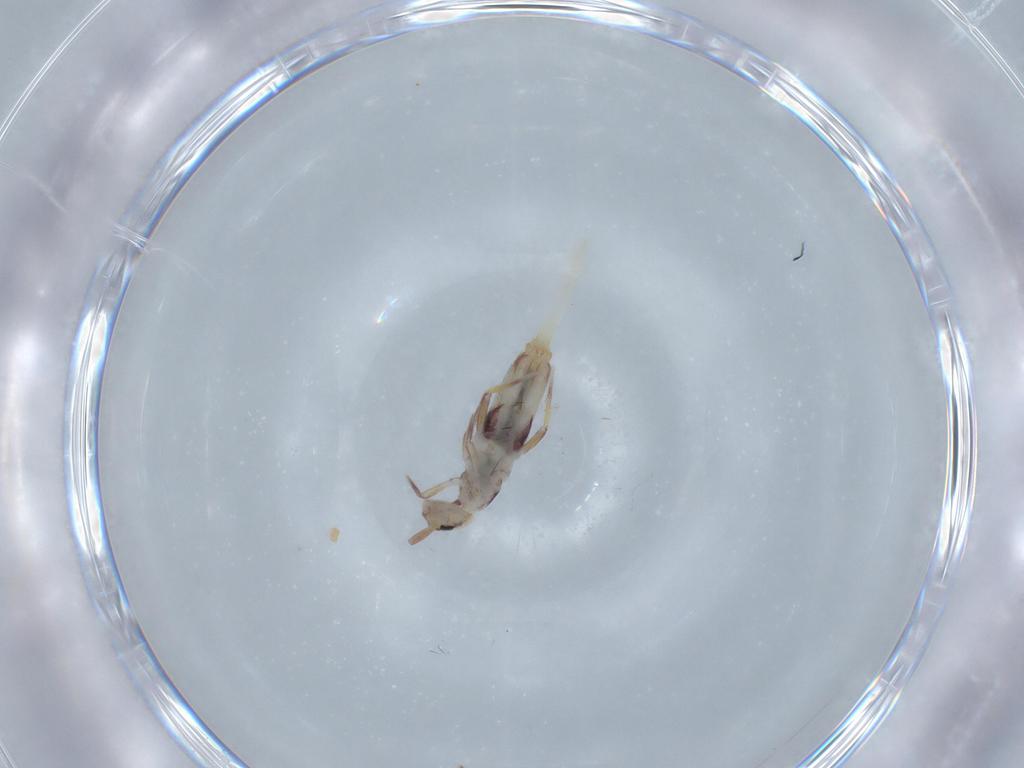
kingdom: Animalia
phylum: Arthropoda
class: Collembola
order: Entomobryomorpha
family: Entomobryidae
